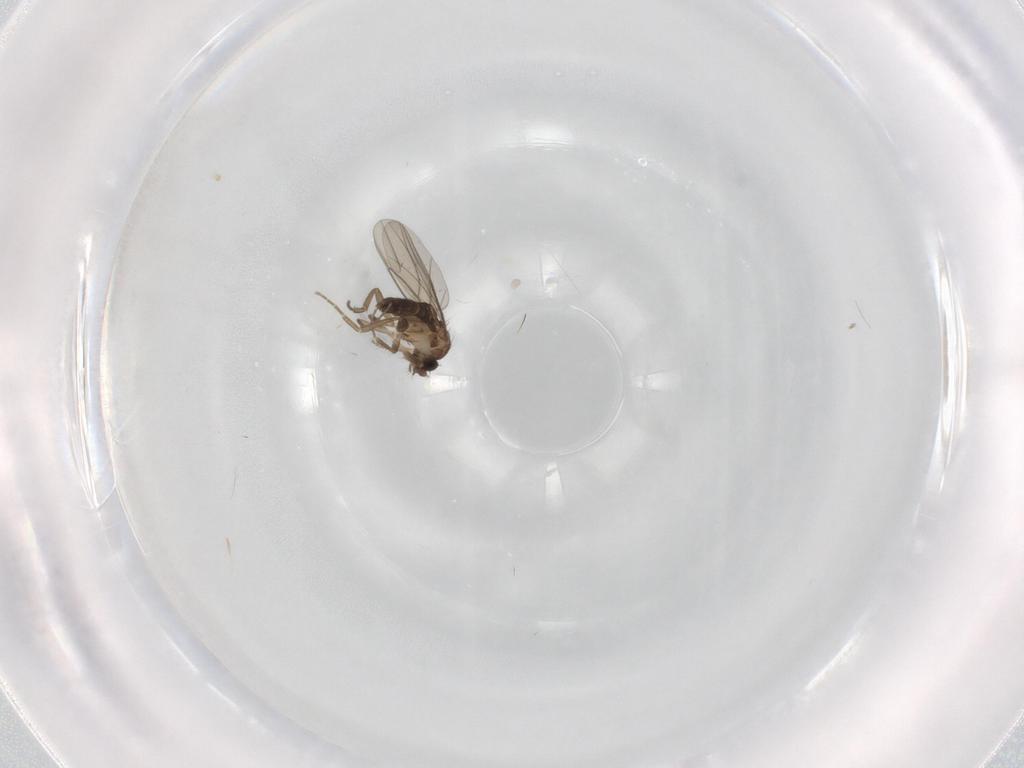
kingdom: Animalia
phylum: Arthropoda
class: Insecta
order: Diptera
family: Phoridae
